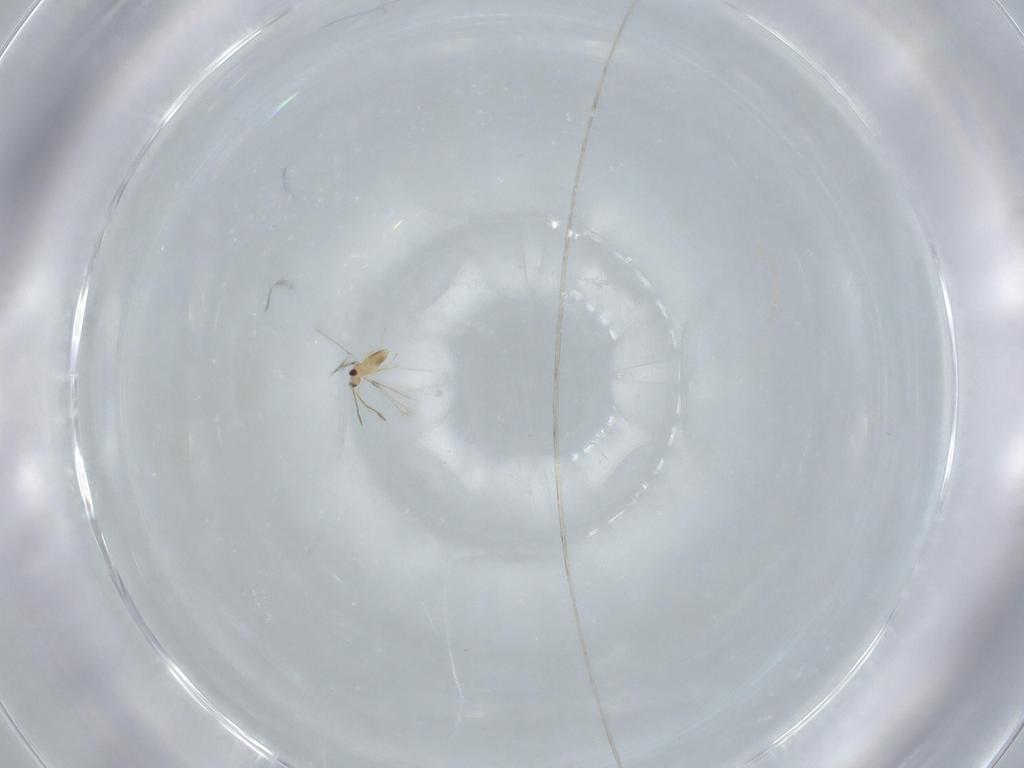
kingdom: Animalia
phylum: Arthropoda
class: Insecta
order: Hymenoptera
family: Mymaridae
